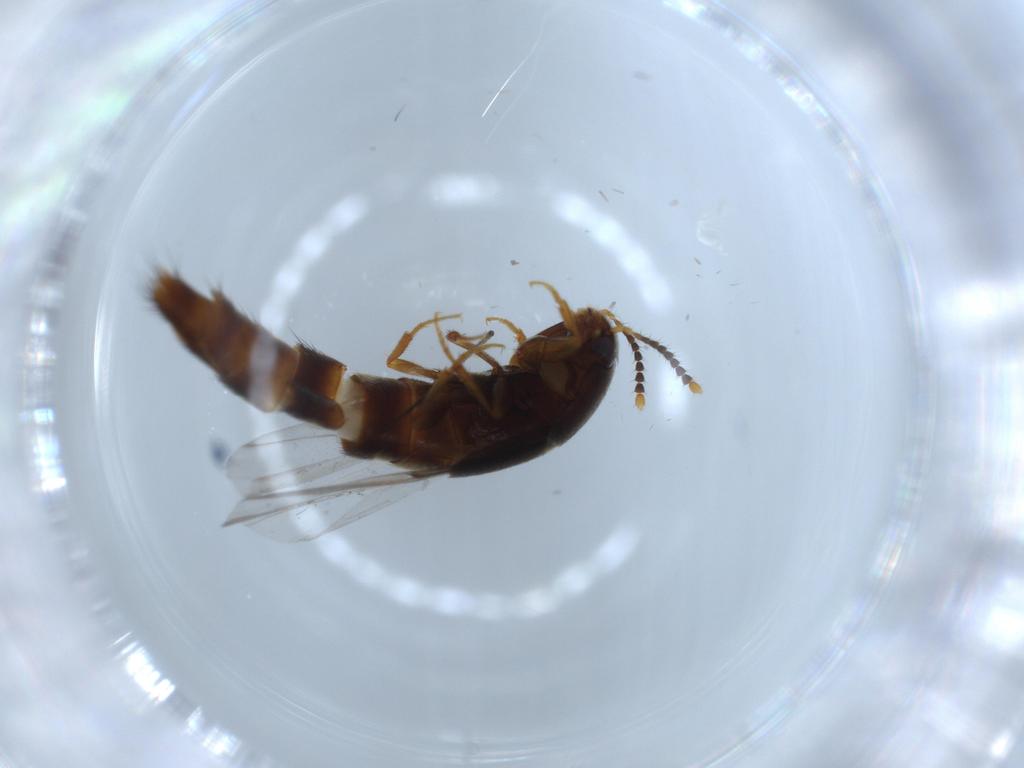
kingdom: Animalia
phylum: Arthropoda
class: Insecta
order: Coleoptera
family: Staphylinidae
